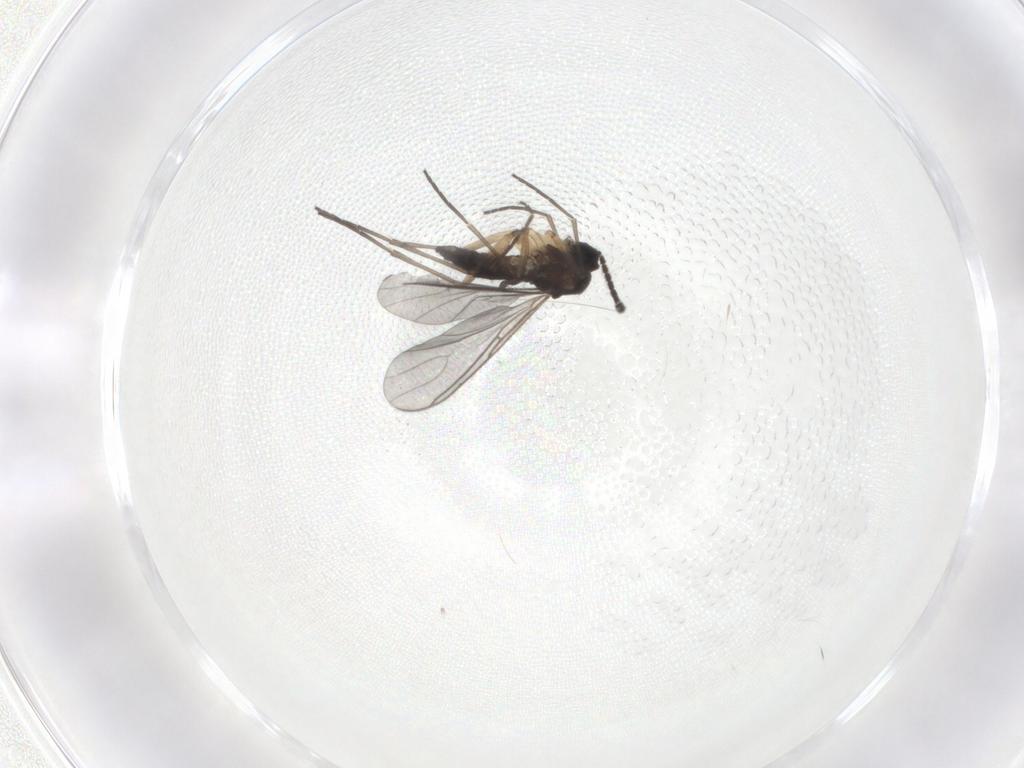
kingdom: Animalia
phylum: Arthropoda
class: Insecta
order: Diptera
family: Sciaridae
